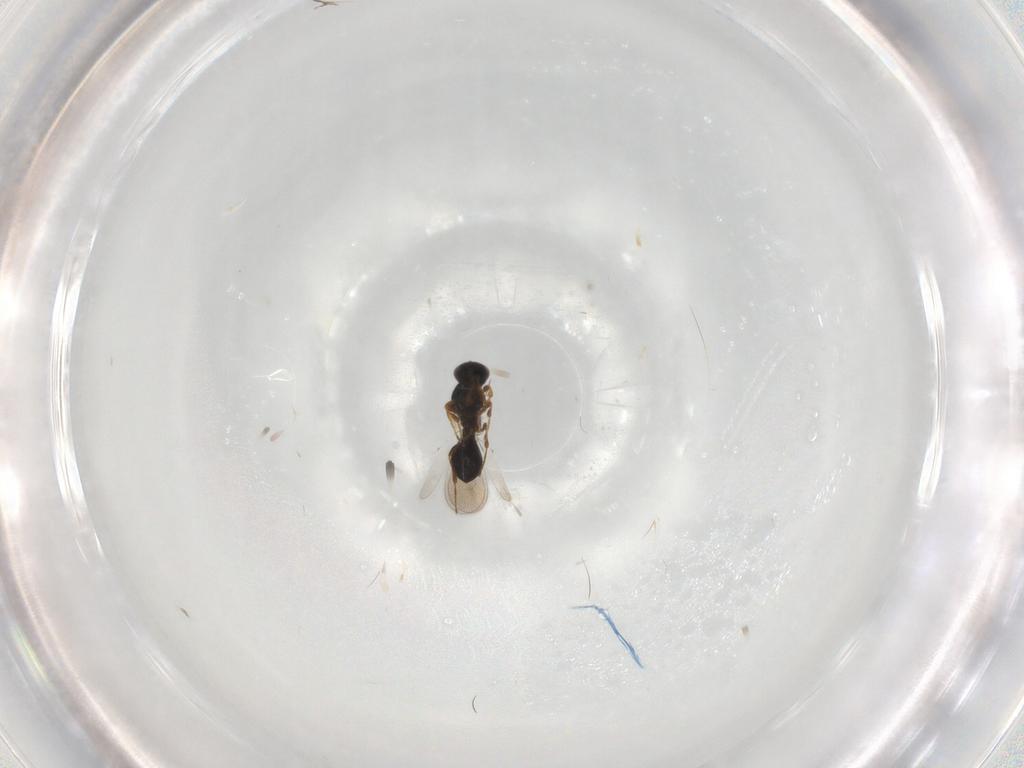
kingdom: Animalia
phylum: Arthropoda
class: Insecta
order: Hymenoptera
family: Platygastridae
